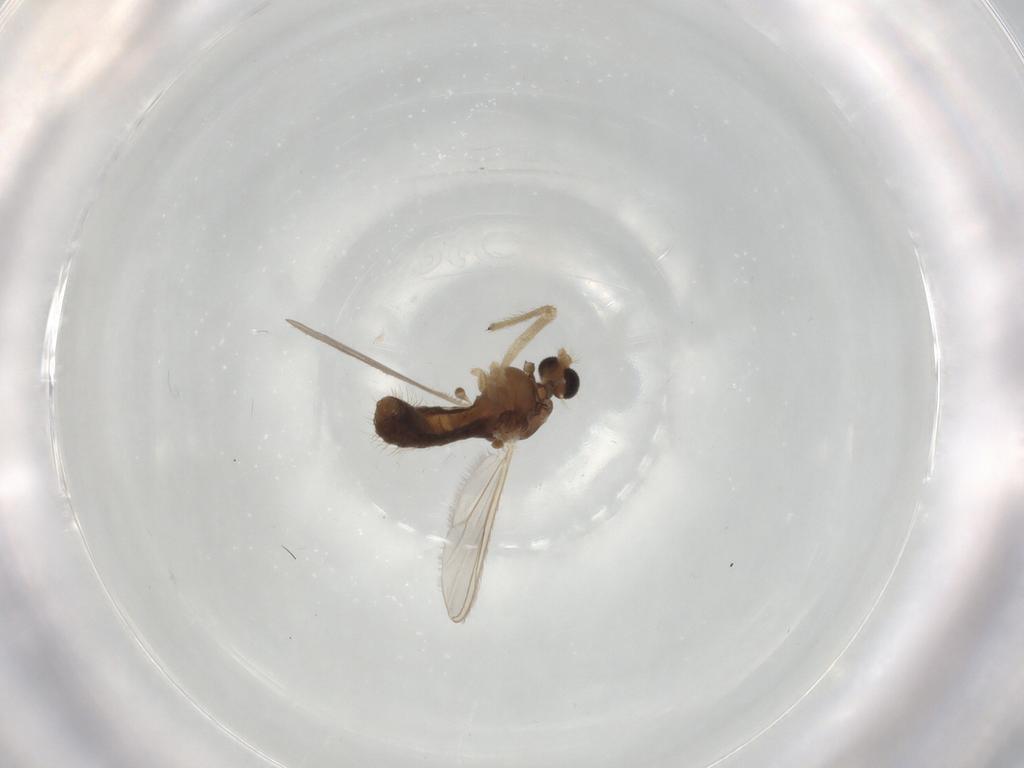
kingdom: Animalia
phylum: Arthropoda
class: Insecta
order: Diptera
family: Chironomidae
